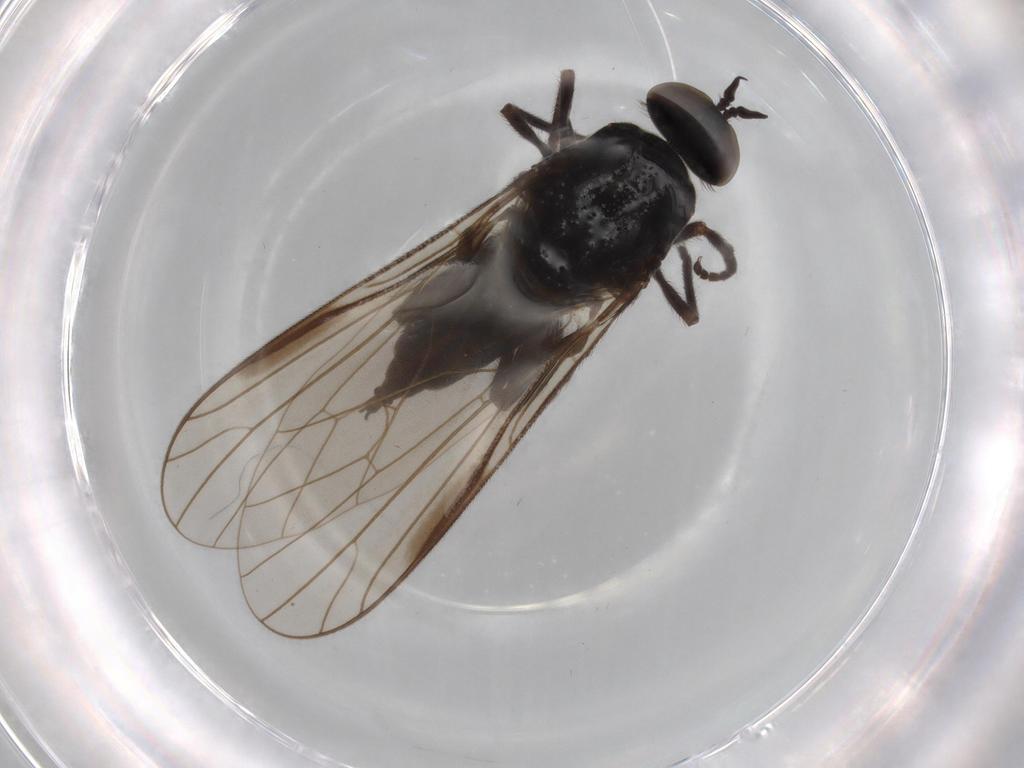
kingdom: Animalia
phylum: Arthropoda
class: Insecta
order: Diptera
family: Empididae
